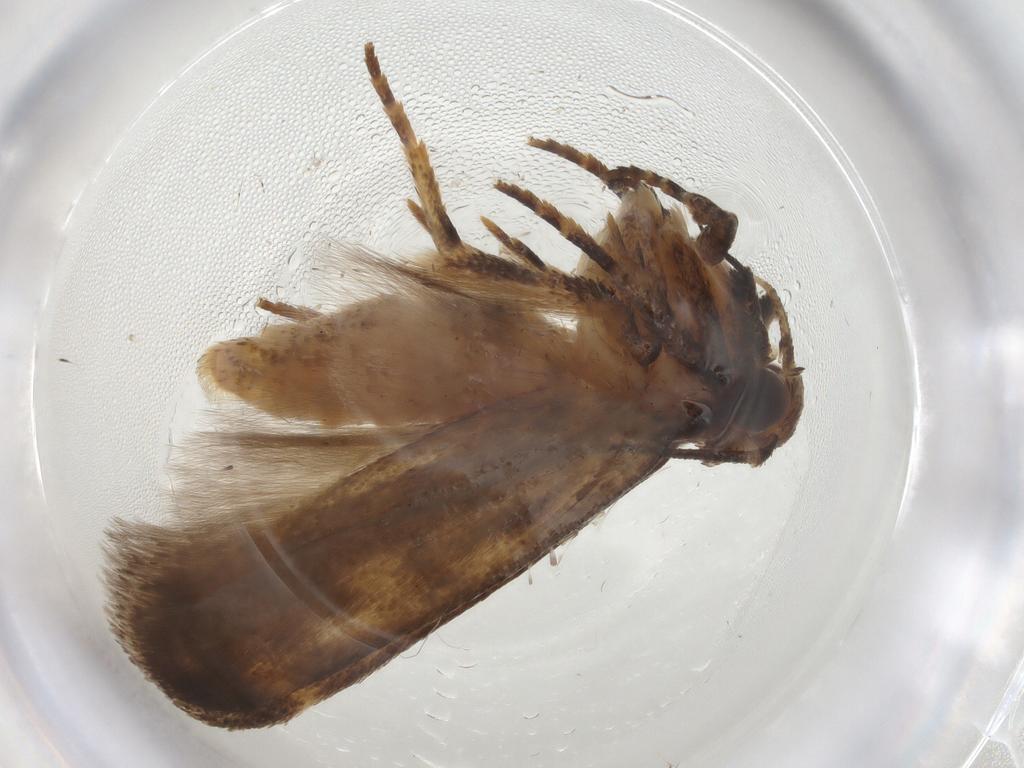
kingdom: Animalia
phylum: Arthropoda
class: Insecta
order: Lepidoptera
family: Gelechiidae
